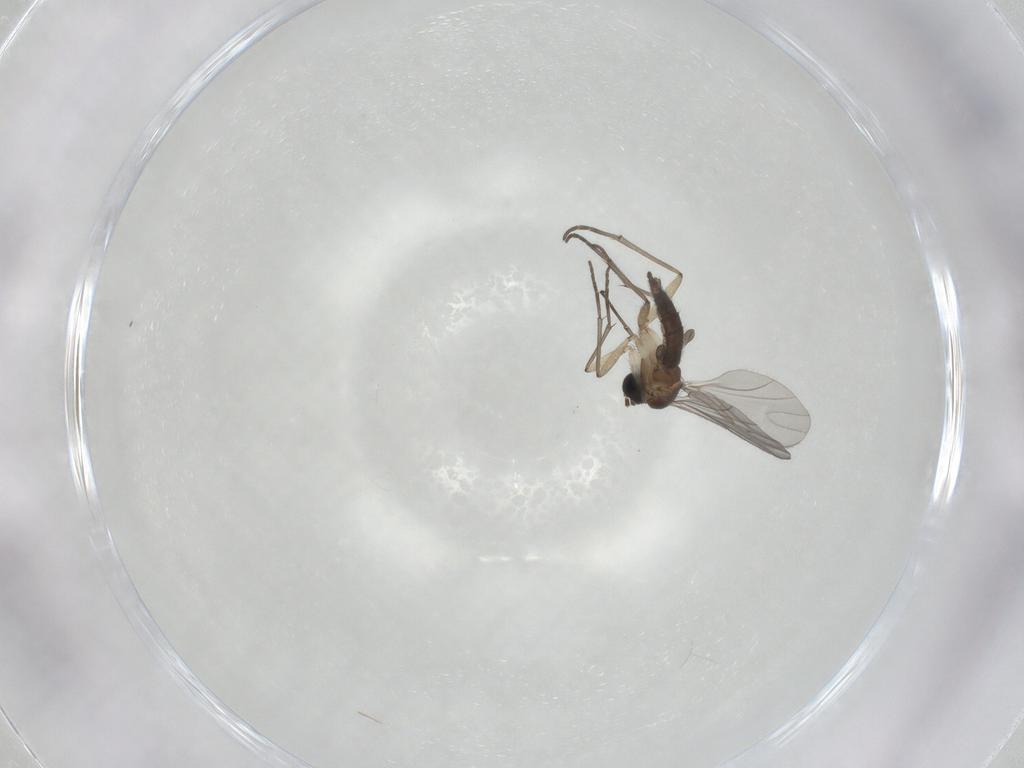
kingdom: Animalia
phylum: Arthropoda
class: Insecta
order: Diptera
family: Sciaridae
